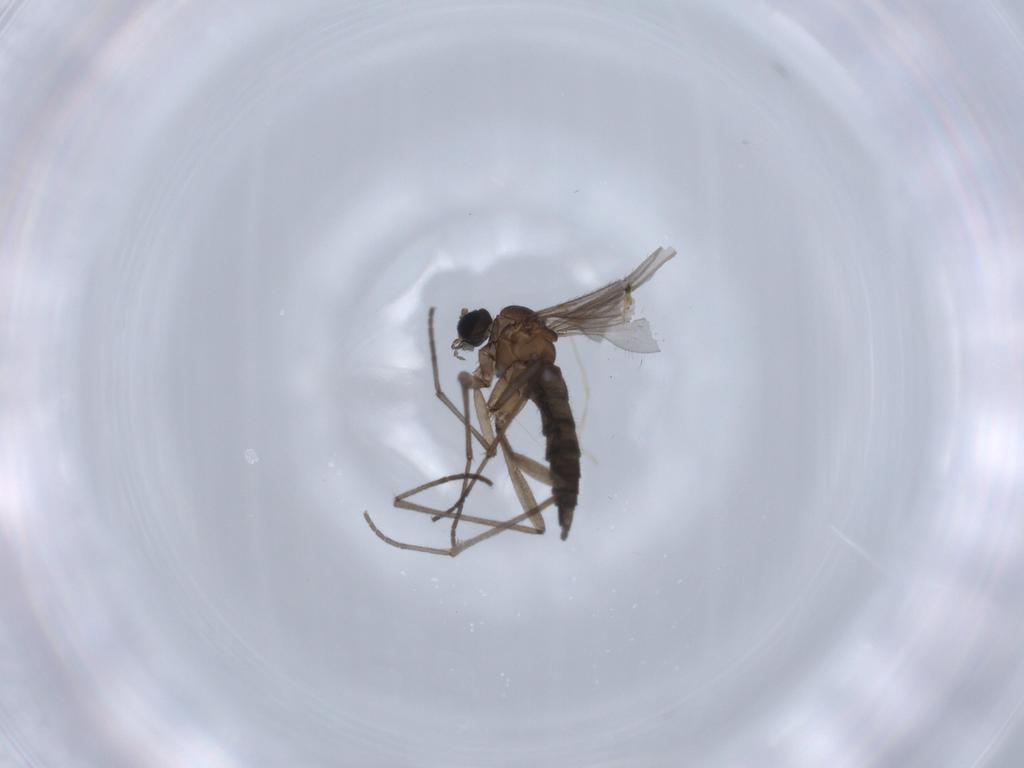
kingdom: Animalia
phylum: Arthropoda
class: Insecta
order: Diptera
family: Sciaridae
